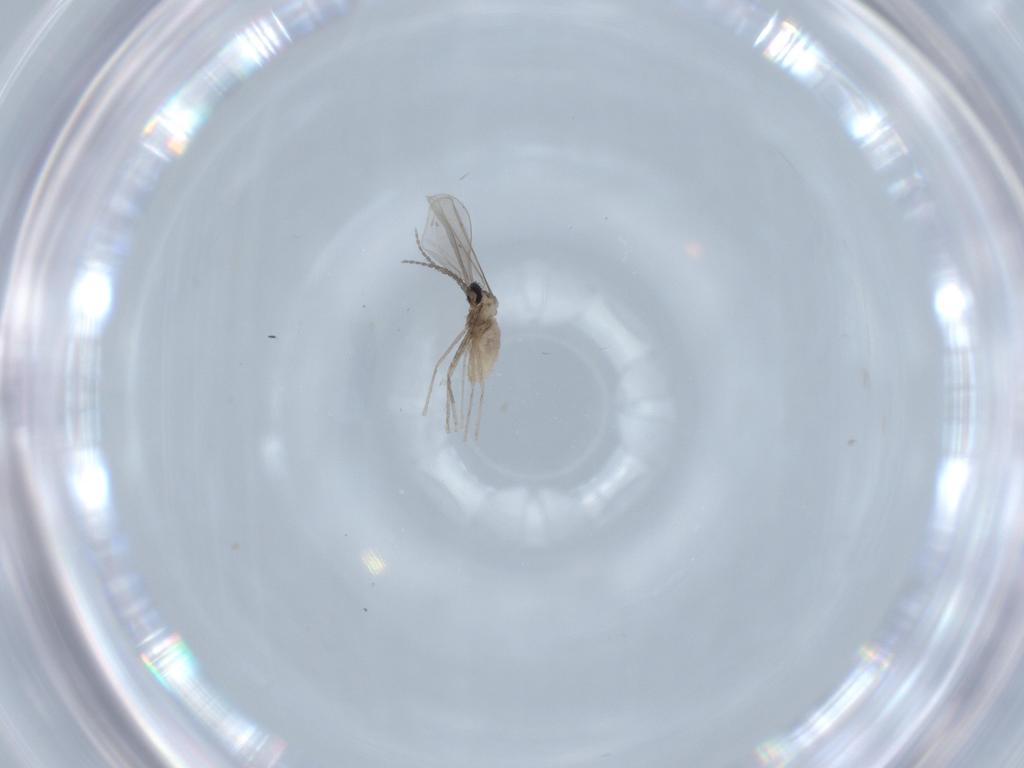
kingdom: Animalia
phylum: Arthropoda
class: Insecta
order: Diptera
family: Cecidomyiidae
